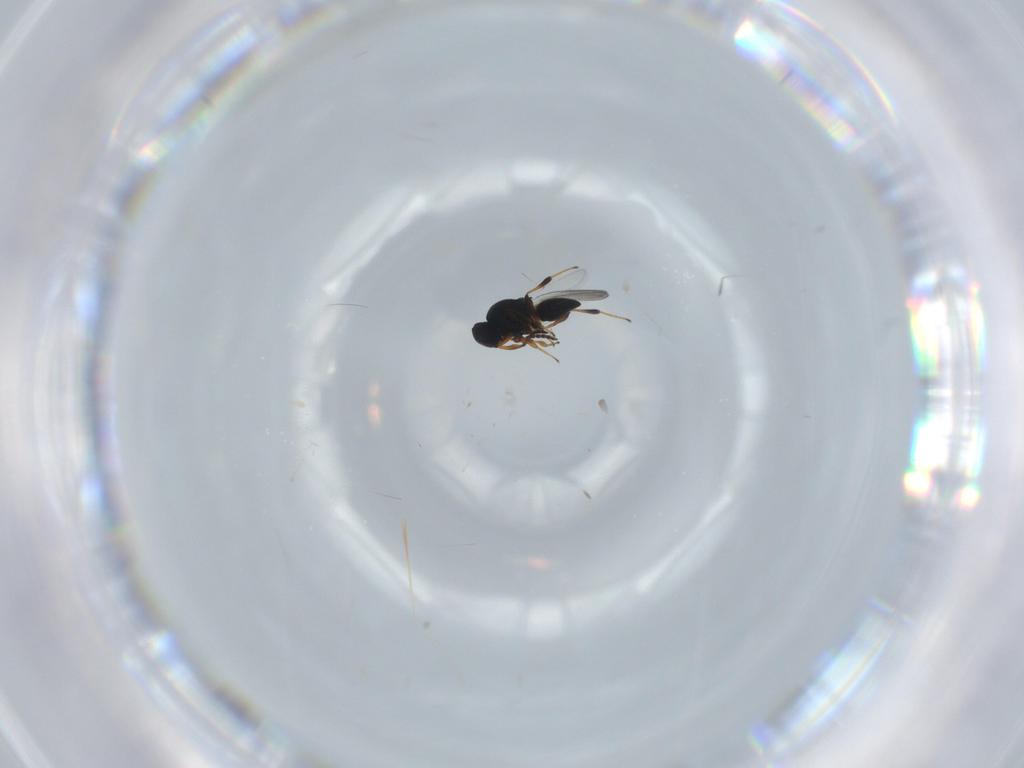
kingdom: Animalia
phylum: Arthropoda
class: Insecta
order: Hymenoptera
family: Platygastridae
